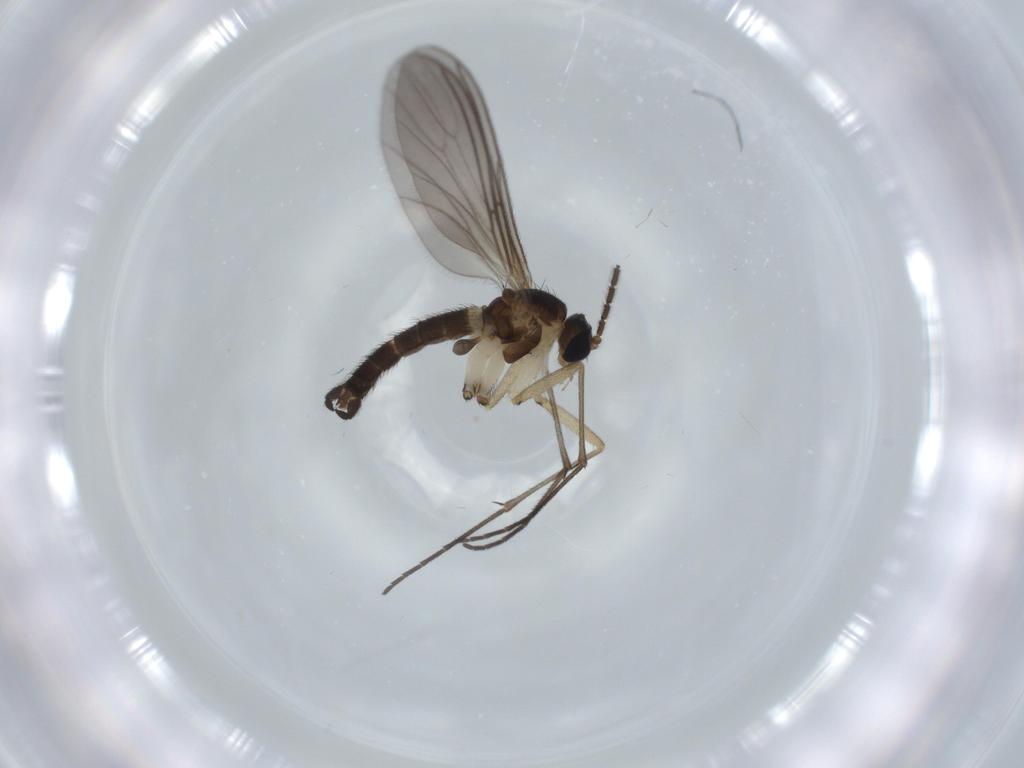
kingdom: Animalia
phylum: Arthropoda
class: Insecta
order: Diptera
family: Sciaridae
